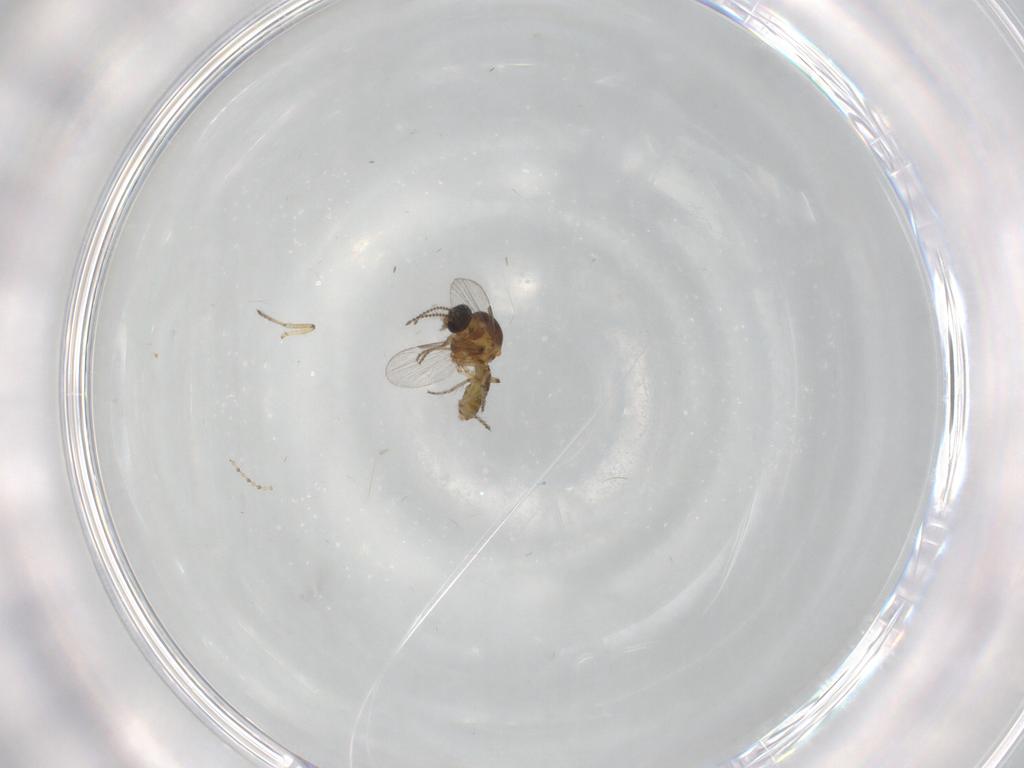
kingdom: Animalia
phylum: Arthropoda
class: Insecta
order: Diptera
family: Ceratopogonidae
